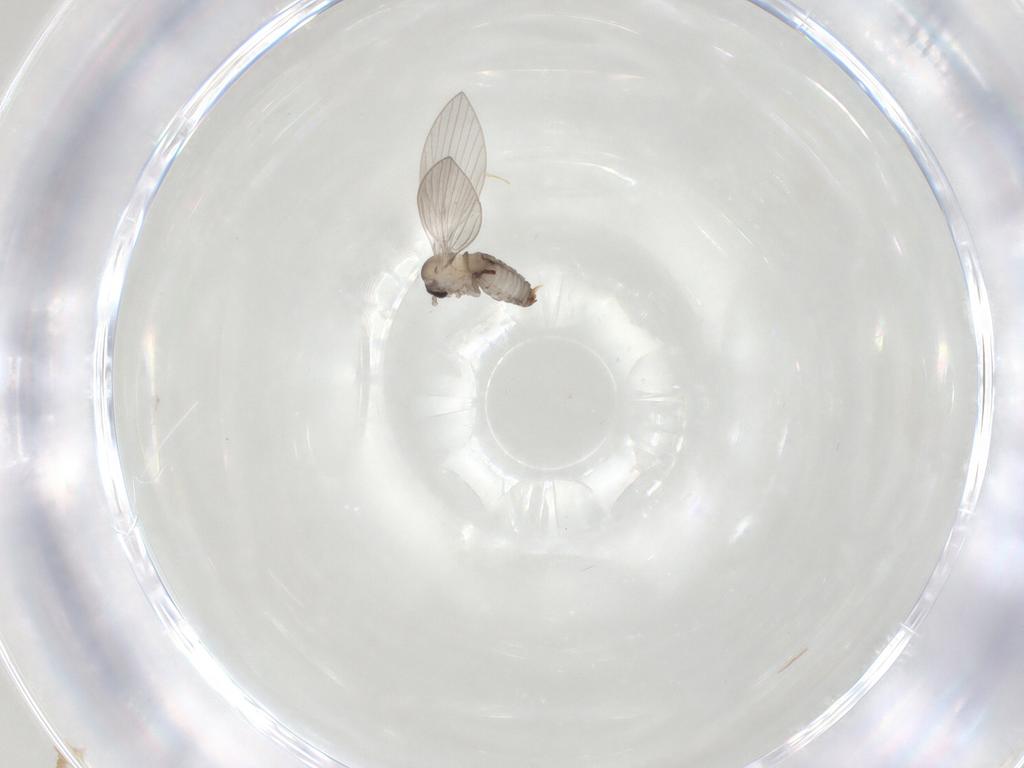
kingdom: Animalia
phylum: Arthropoda
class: Insecta
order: Diptera
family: Psychodidae
